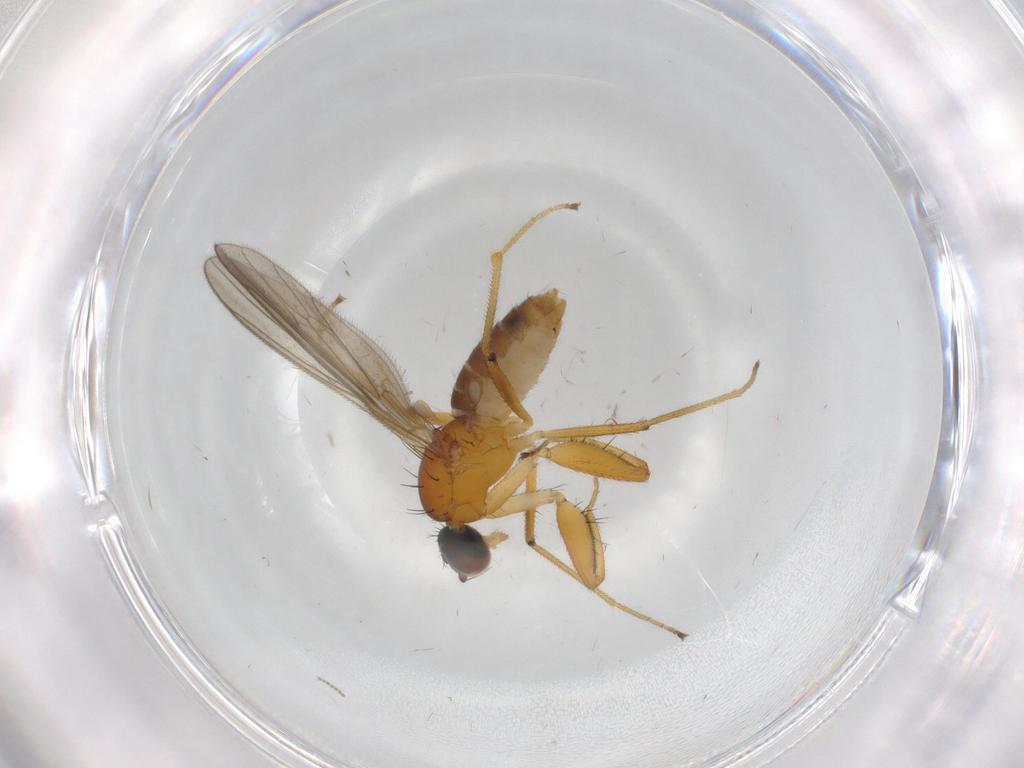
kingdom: Animalia
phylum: Arthropoda
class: Insecta
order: Diptera
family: Empididae
